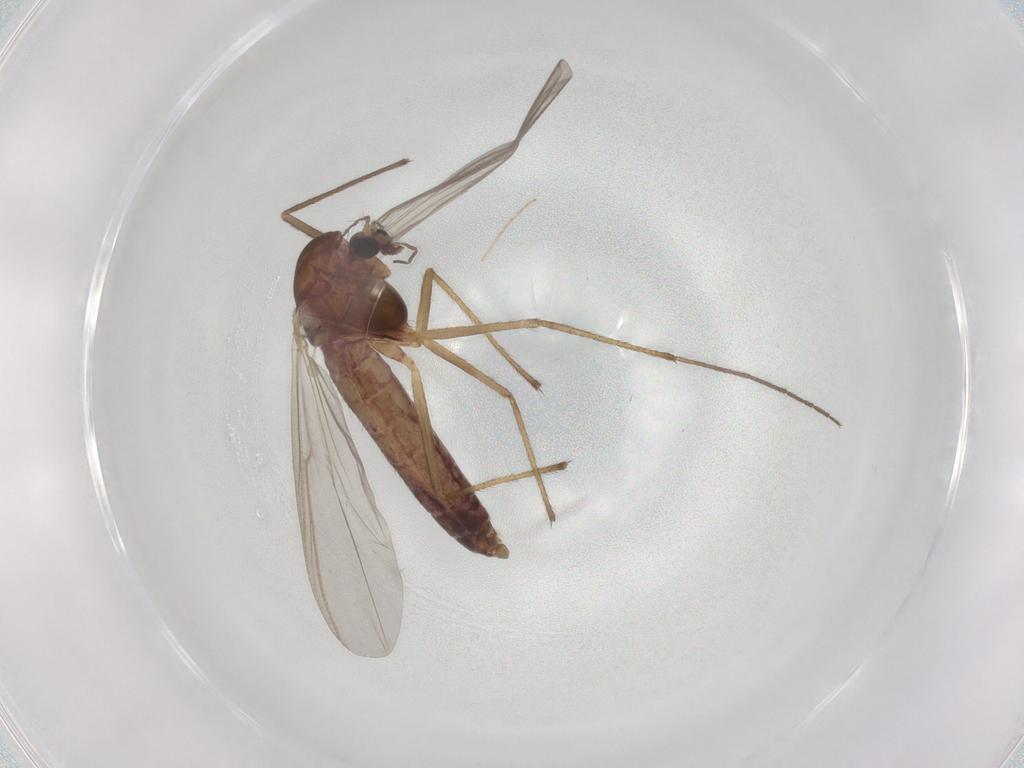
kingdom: Animalia
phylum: Arthropoda
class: Insecta
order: Diptera
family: Chironomidae
